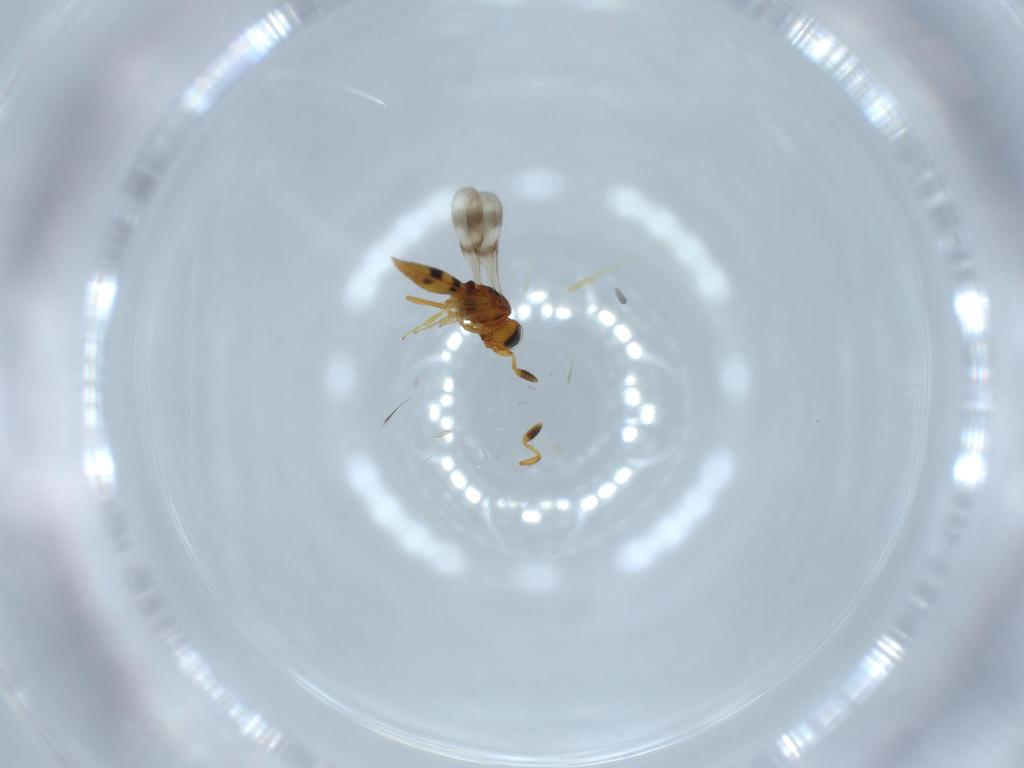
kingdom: Animalia
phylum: Arthropoda
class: Insecta
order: Hymenoptera
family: Scelionidae
